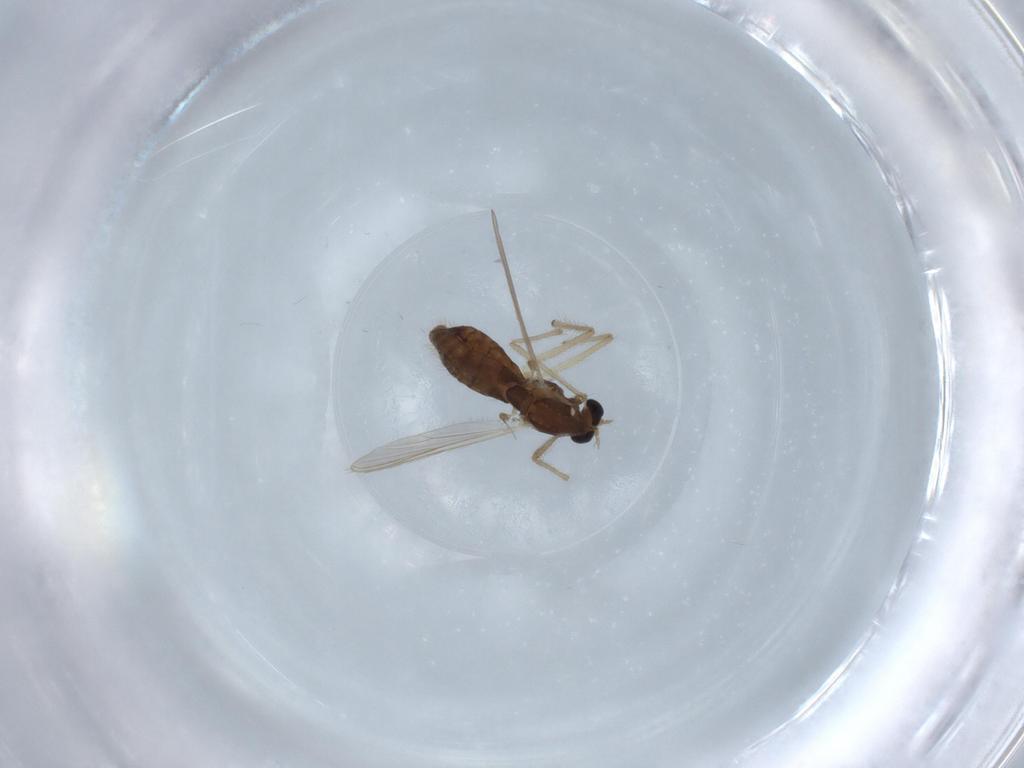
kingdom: Animalia
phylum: Arthropoda
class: Insecta
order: Diptera
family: Chironomidae
